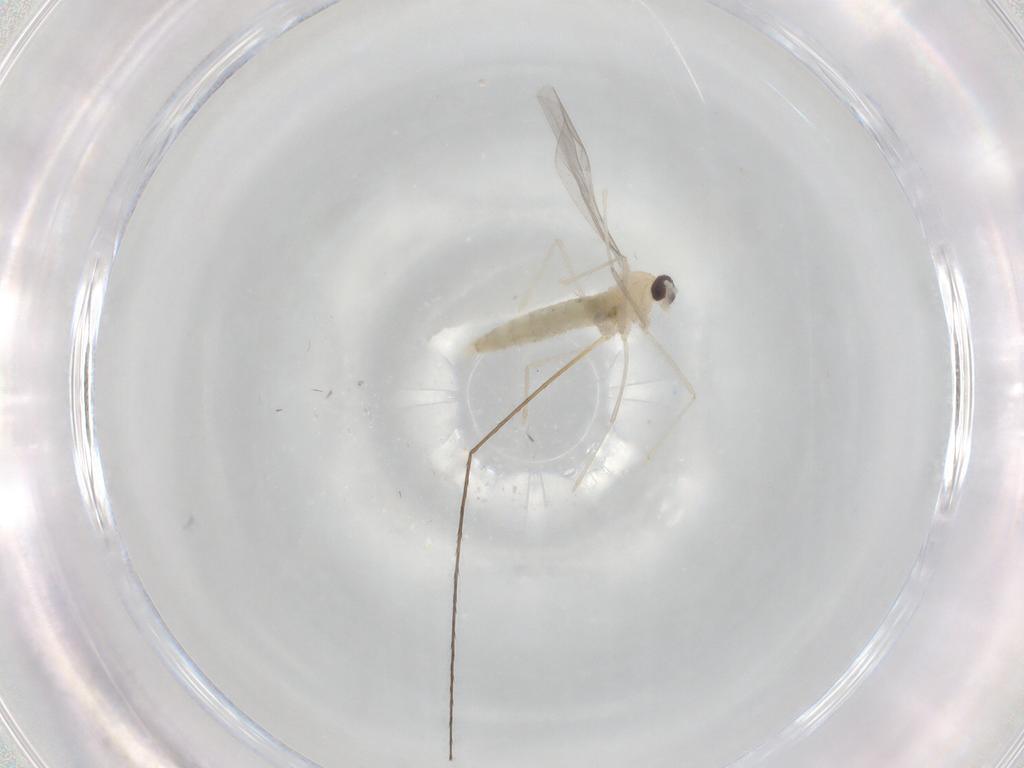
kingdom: Animalia
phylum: Arthropoda
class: Insecta
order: Diptera
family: Cecidomyiidae
